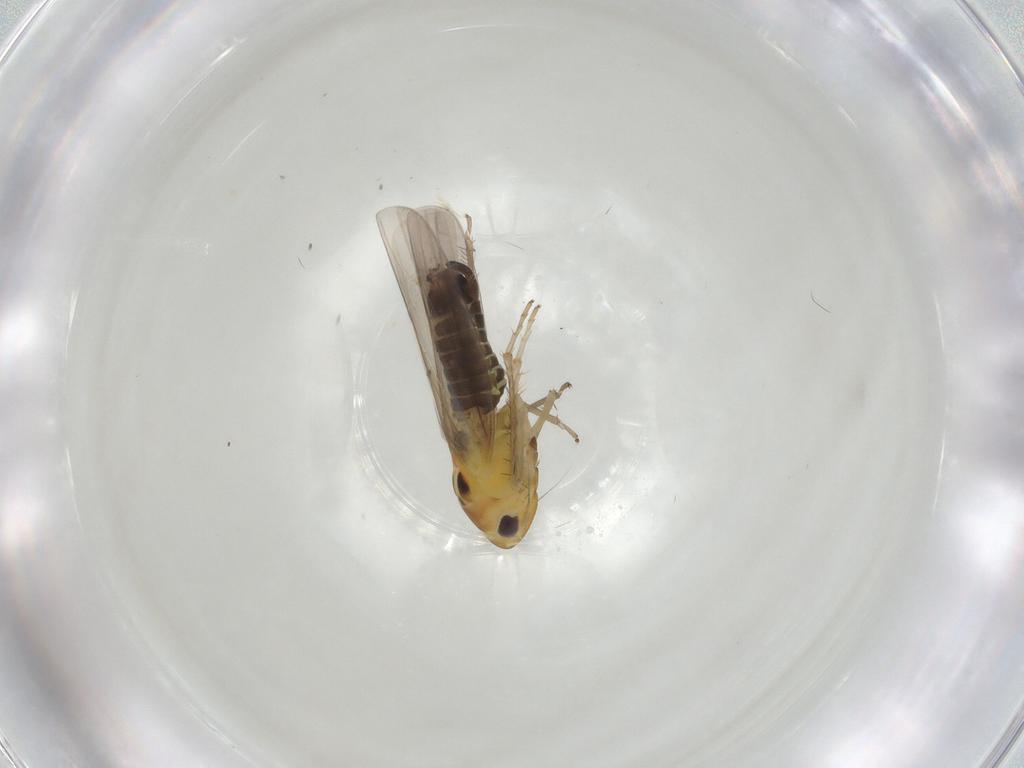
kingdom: Animalia
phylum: Arthropoda
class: Insecta
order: Hemiptera
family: Cicadellidae
